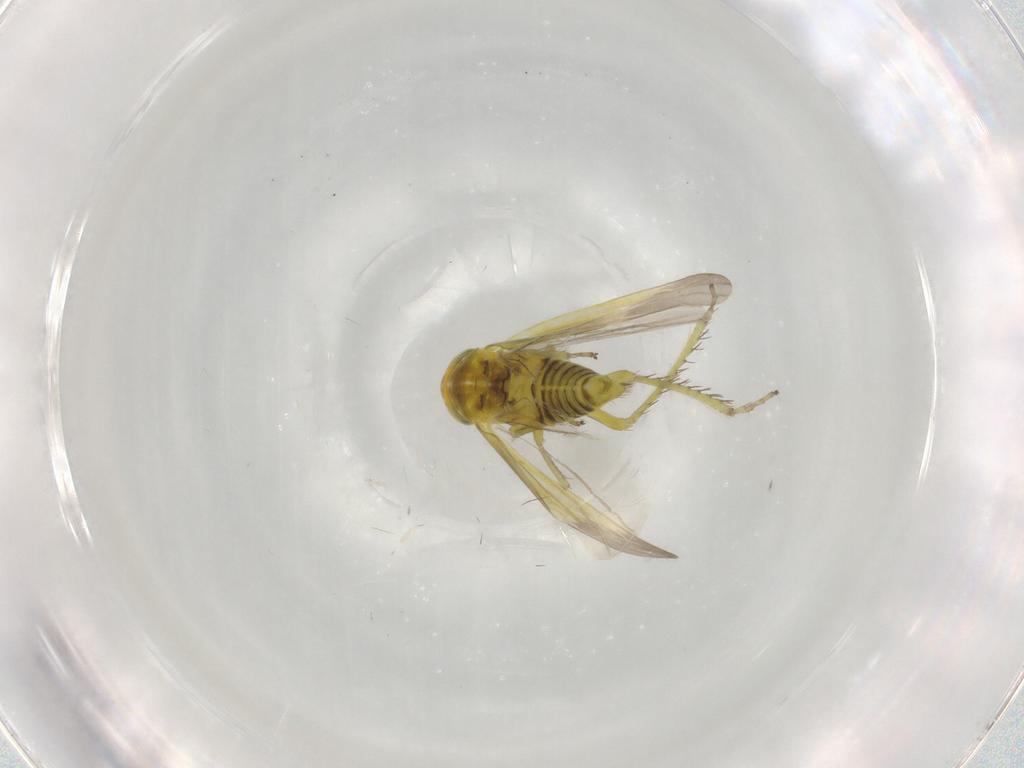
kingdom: Animalia
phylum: Arthropoda
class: Insecta
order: Hemiptera
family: Cicadellidae
